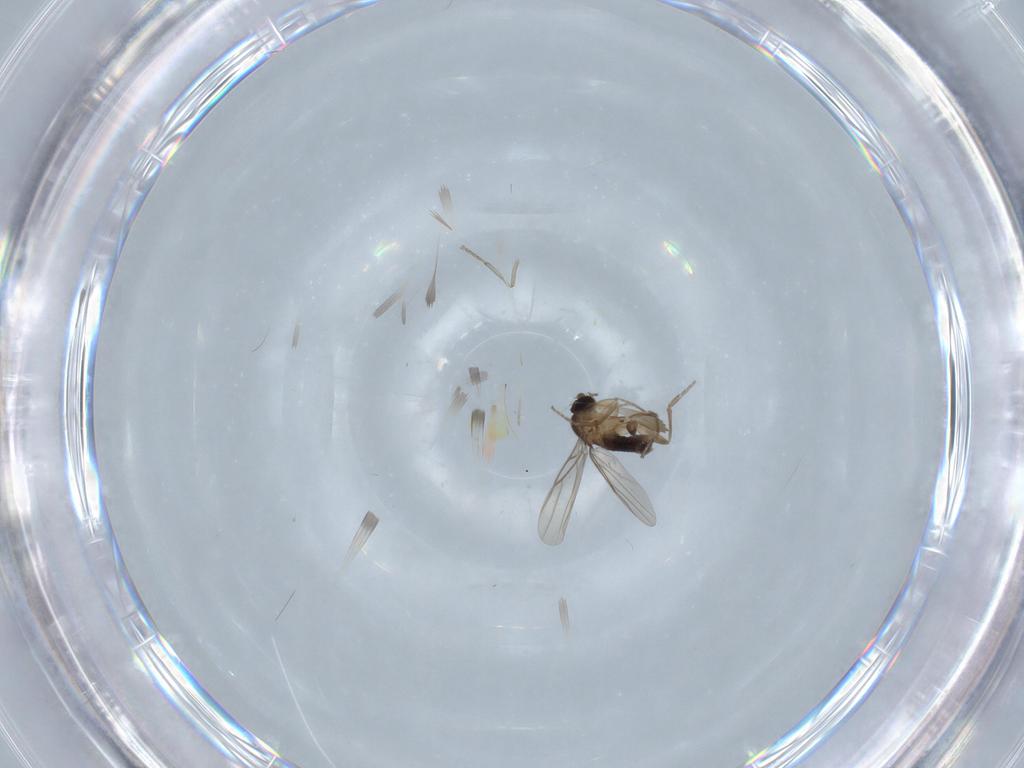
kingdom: Animalia
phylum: Arthropoda
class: Insecta
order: Diptera
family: Psychodidae
